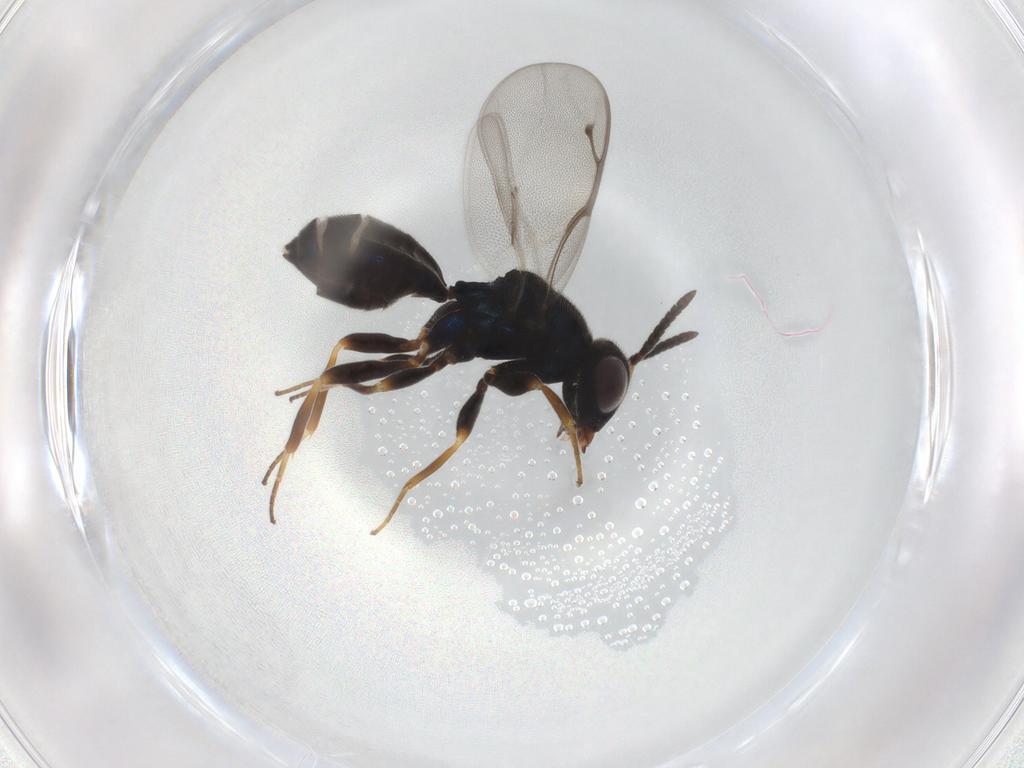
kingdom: Animalia
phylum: Arthropoda
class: Insecta
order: Hymenoptera
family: Pteromalidae
